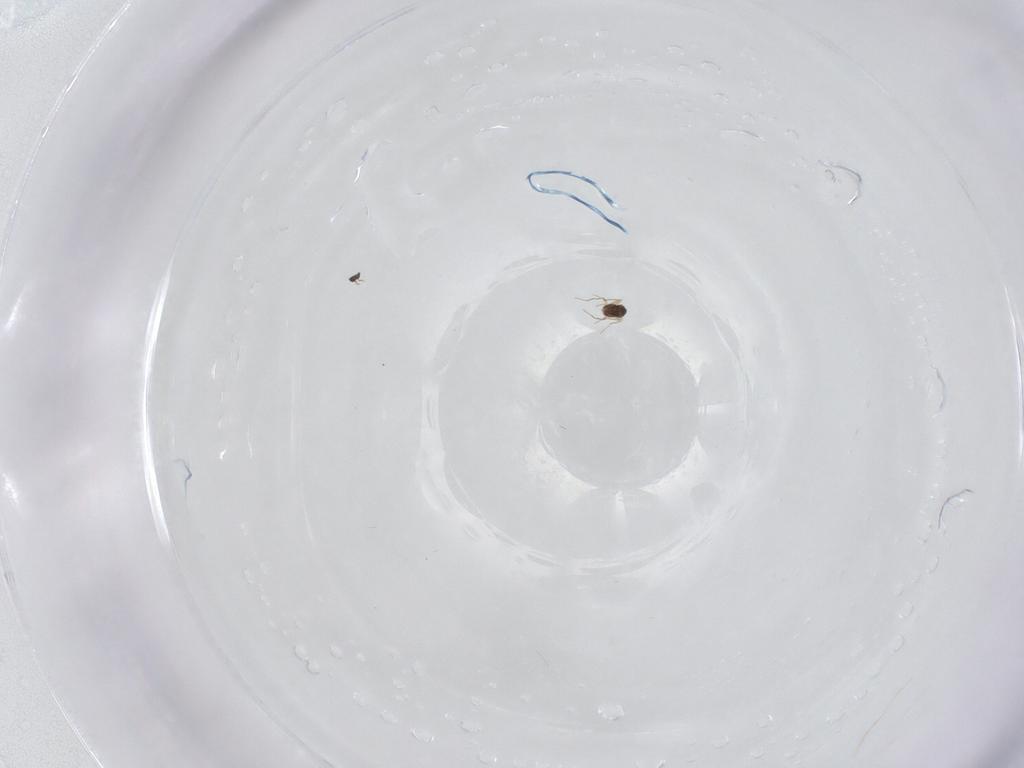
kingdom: Animalia
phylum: Arthropoda
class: Insecta
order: Diptera
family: Sciaridae
